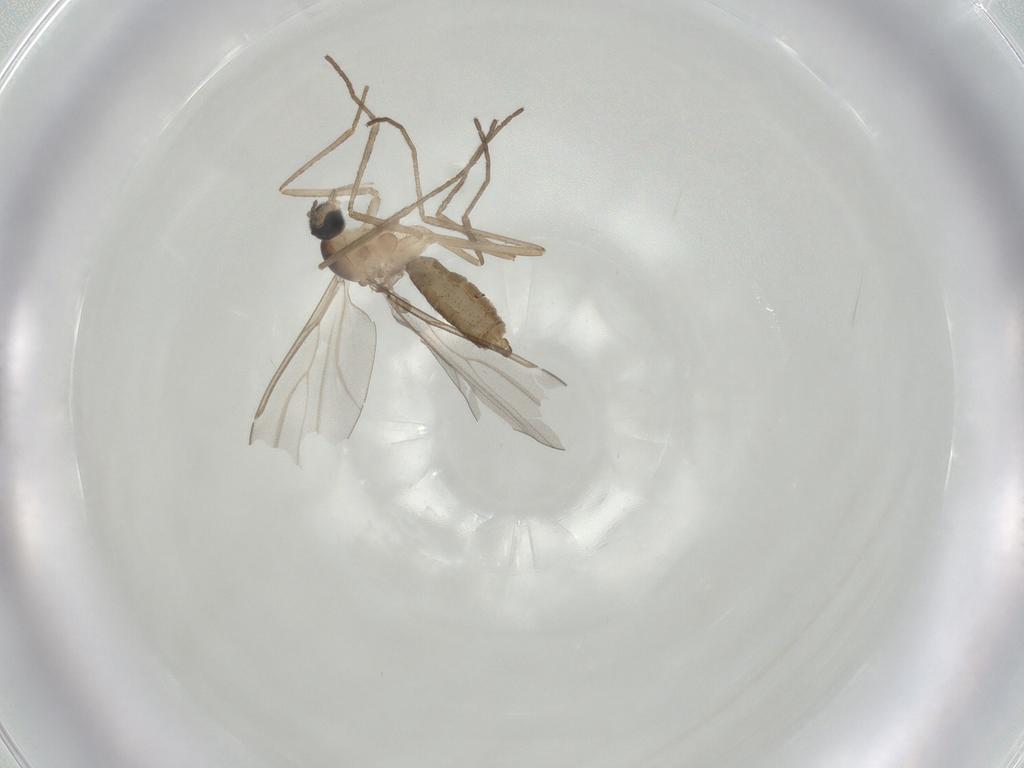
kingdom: Animalia
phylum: Arthropoda
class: Insecta
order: Diptera
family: Cecidomyiidae
